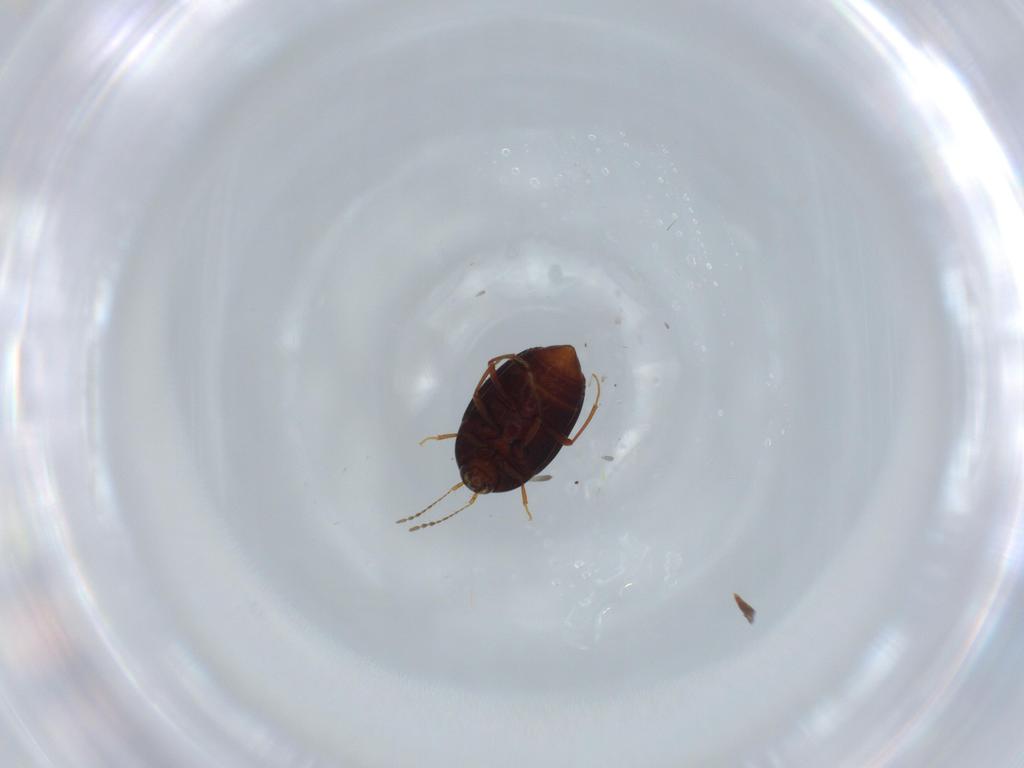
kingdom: Animalia
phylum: Arthropoda
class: Insecta
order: Coleoptera
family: Staphylinidae
